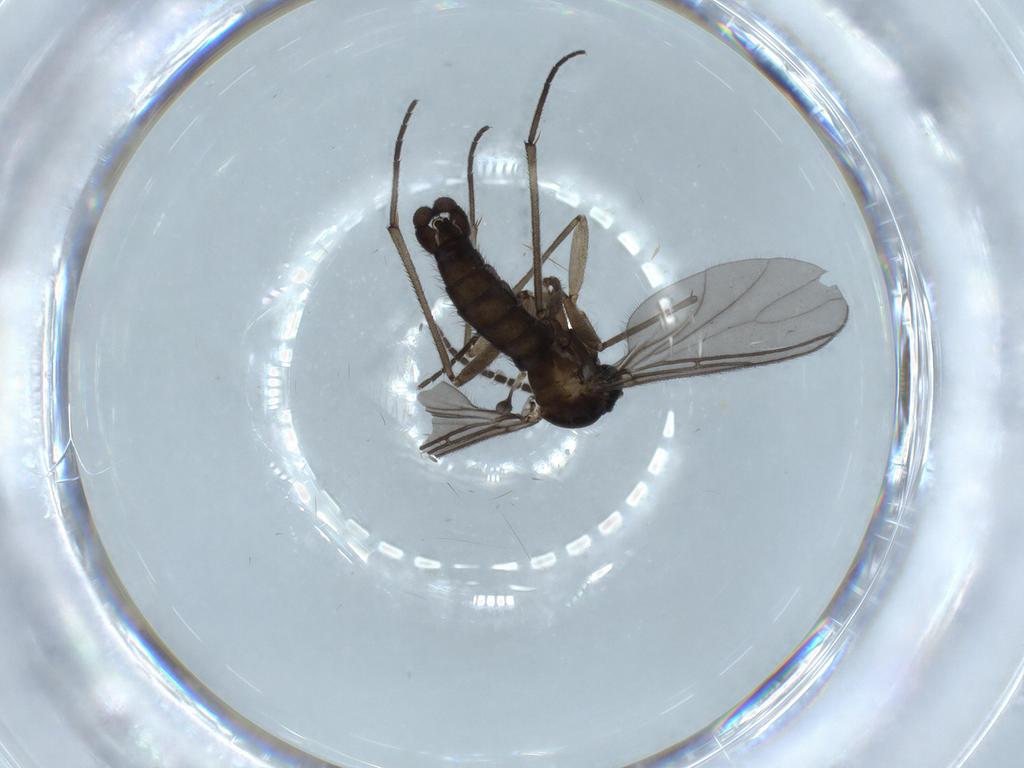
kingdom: Animalia
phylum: Arthropoda
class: Insecta
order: Diptera
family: Sciaridae
